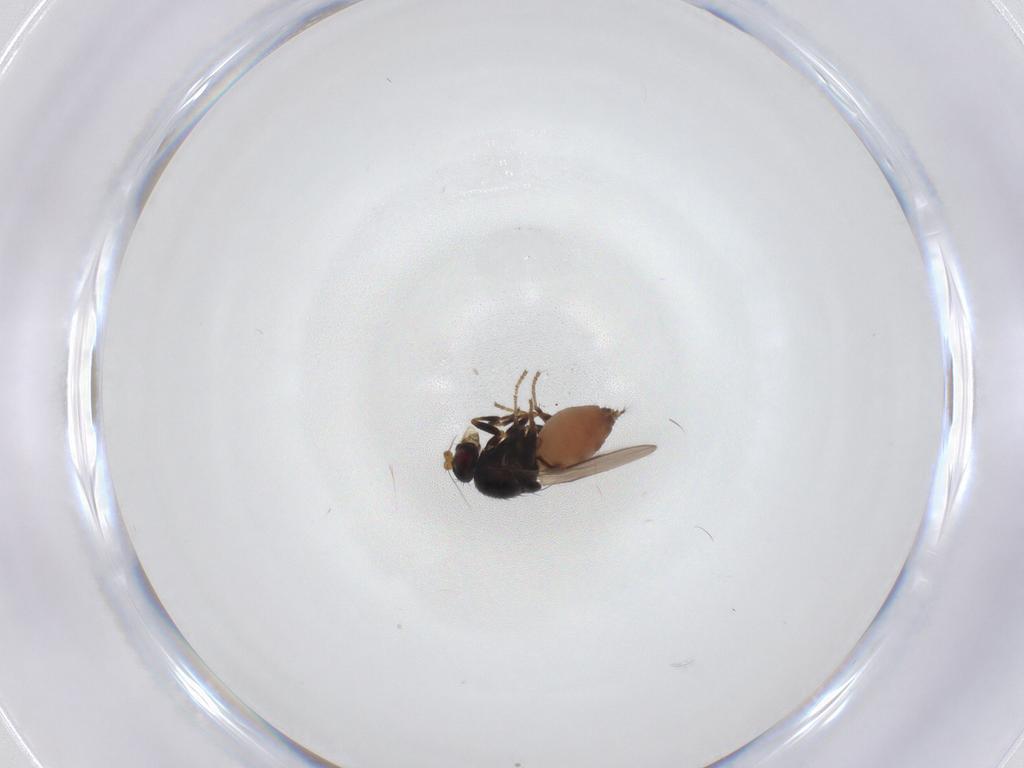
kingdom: Animalia
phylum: Arthropoda
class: Insecta
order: Diptera
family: Sphaeroceridae
